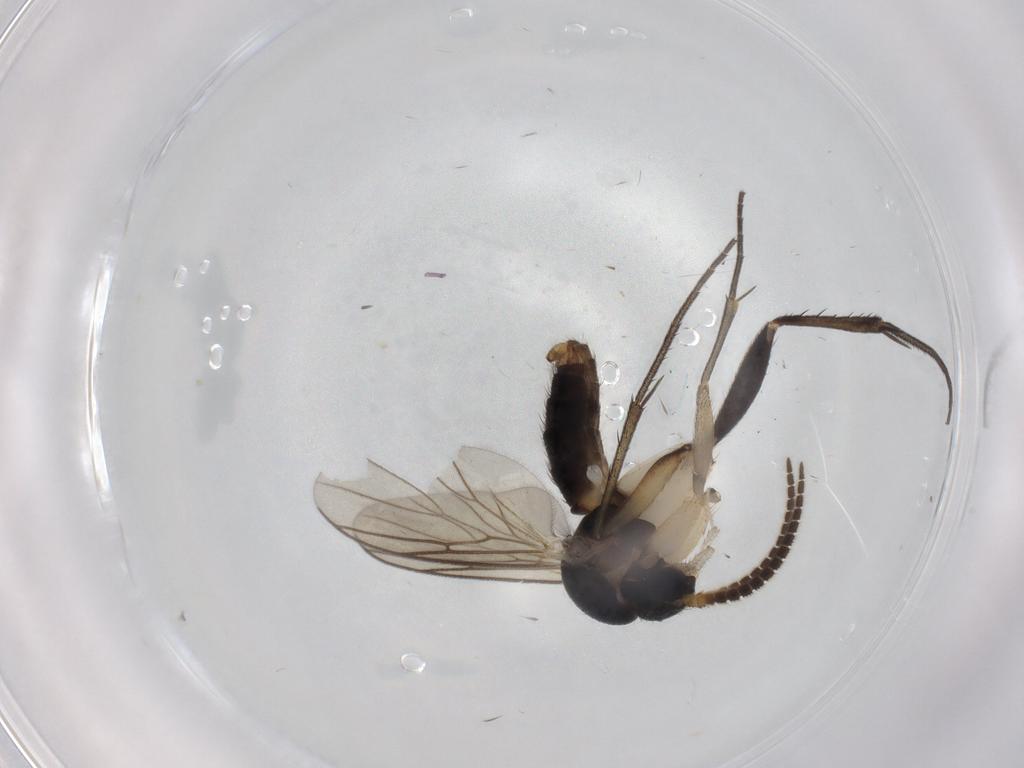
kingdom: Animalia
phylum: Arthropoda
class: Insecta
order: Diptera
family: Mycetophilidae
